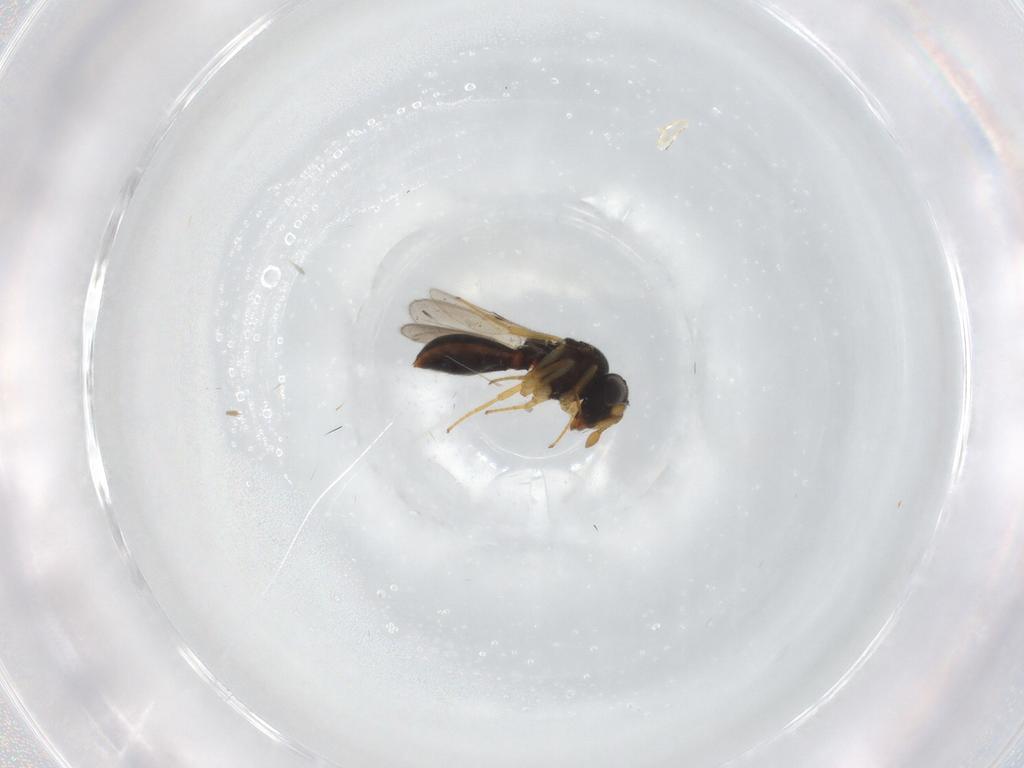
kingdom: Animalia
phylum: Arthropoda
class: Insecta
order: Hymenoptera
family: Scelionidae
